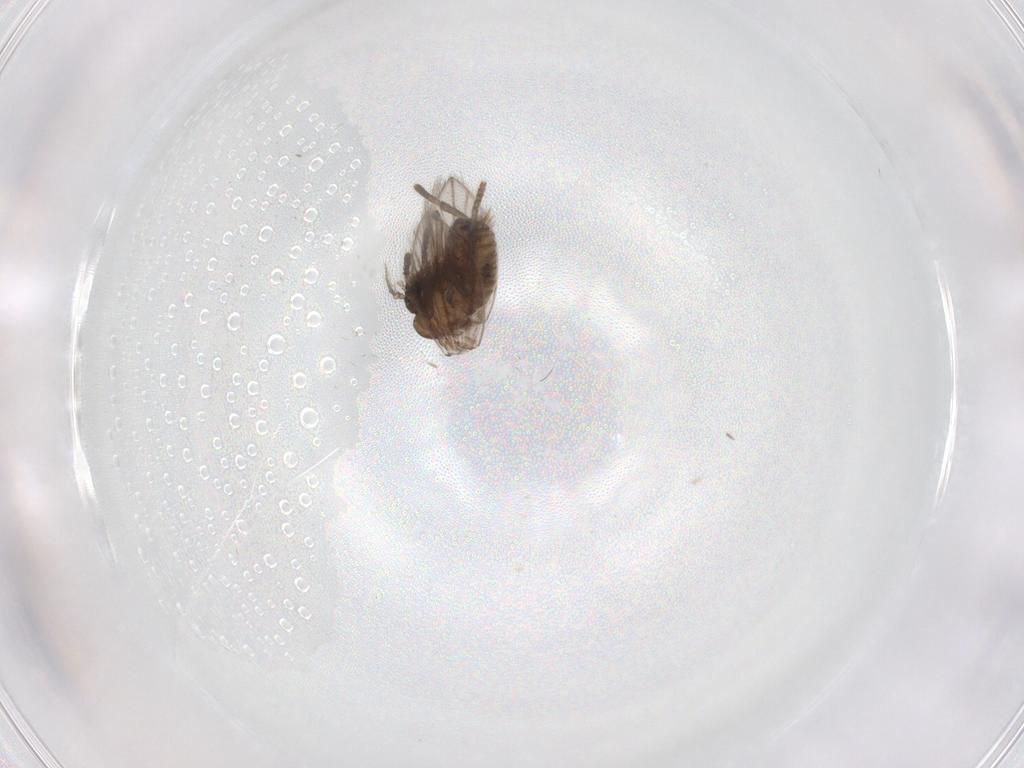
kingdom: Animalia
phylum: Arthropoda
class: Insecta
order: Diptera
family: Psychodidae
